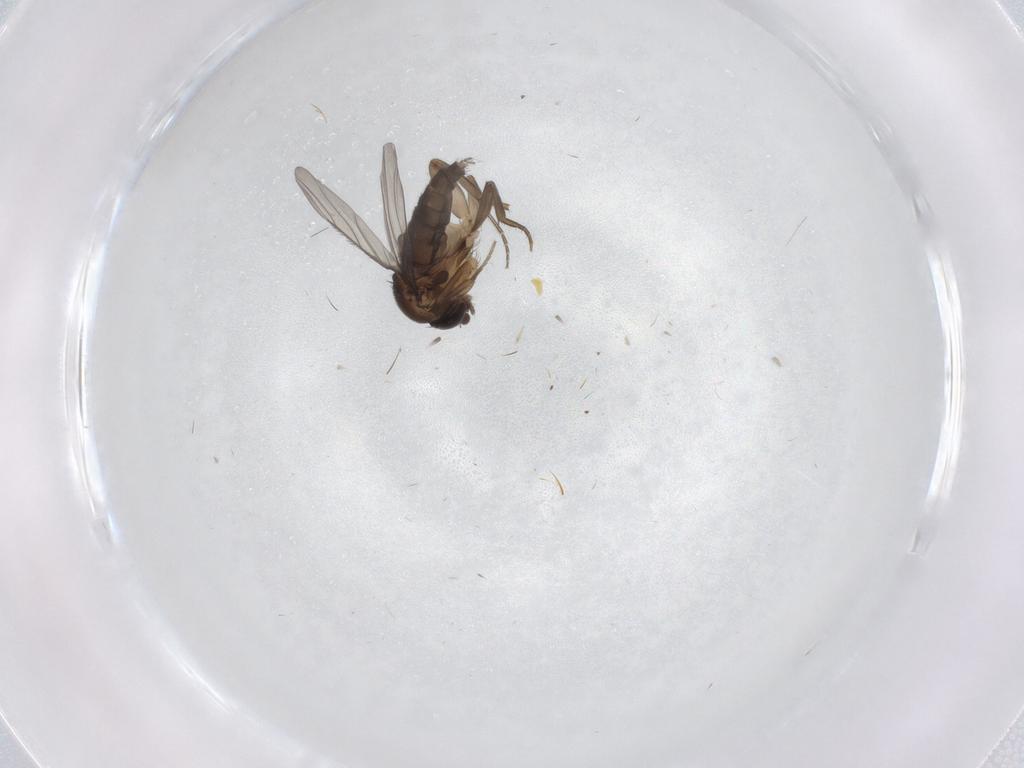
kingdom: Animalia
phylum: Arthropoda
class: Insecta
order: Diptera
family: Phoridae
